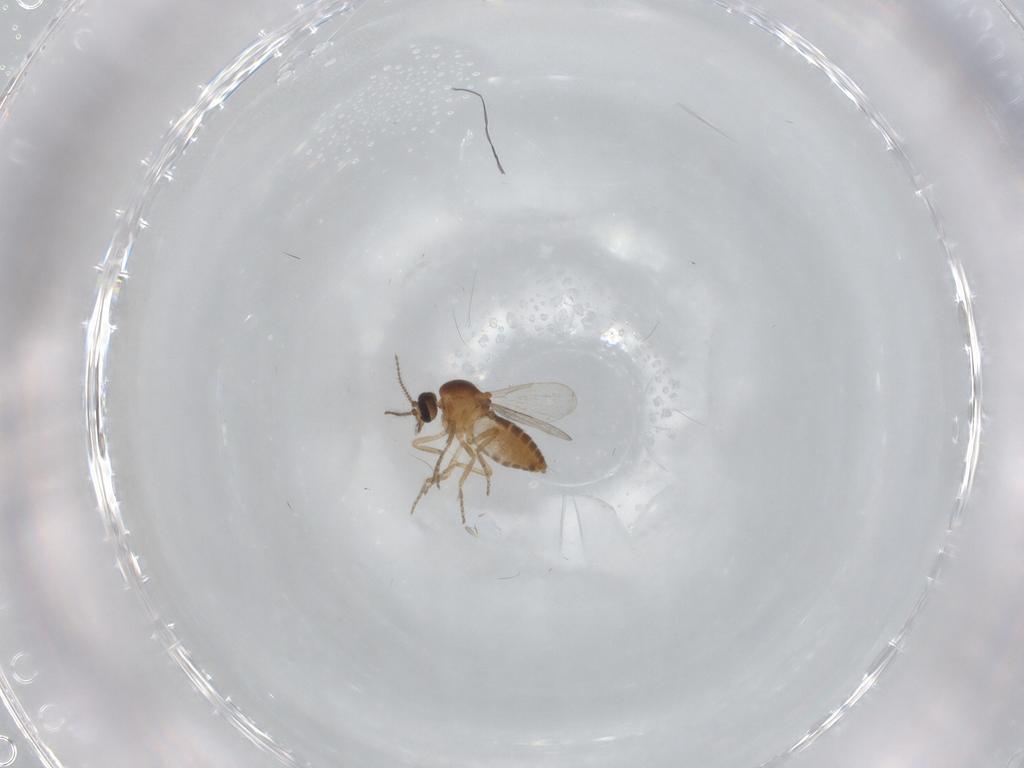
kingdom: Animalia
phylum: Arthropoda
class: Insecta
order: Diptera
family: Ceratopogonidae
